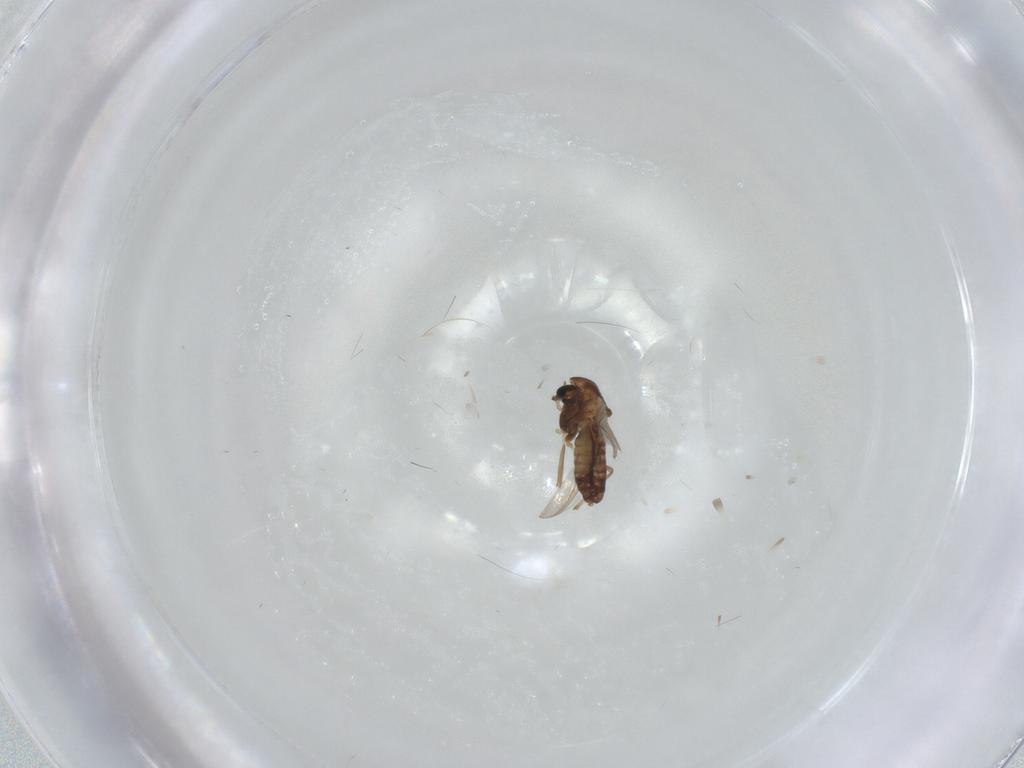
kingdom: Animalia
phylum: Arthropoda
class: Insecta
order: Diptera
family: Chironomidae
